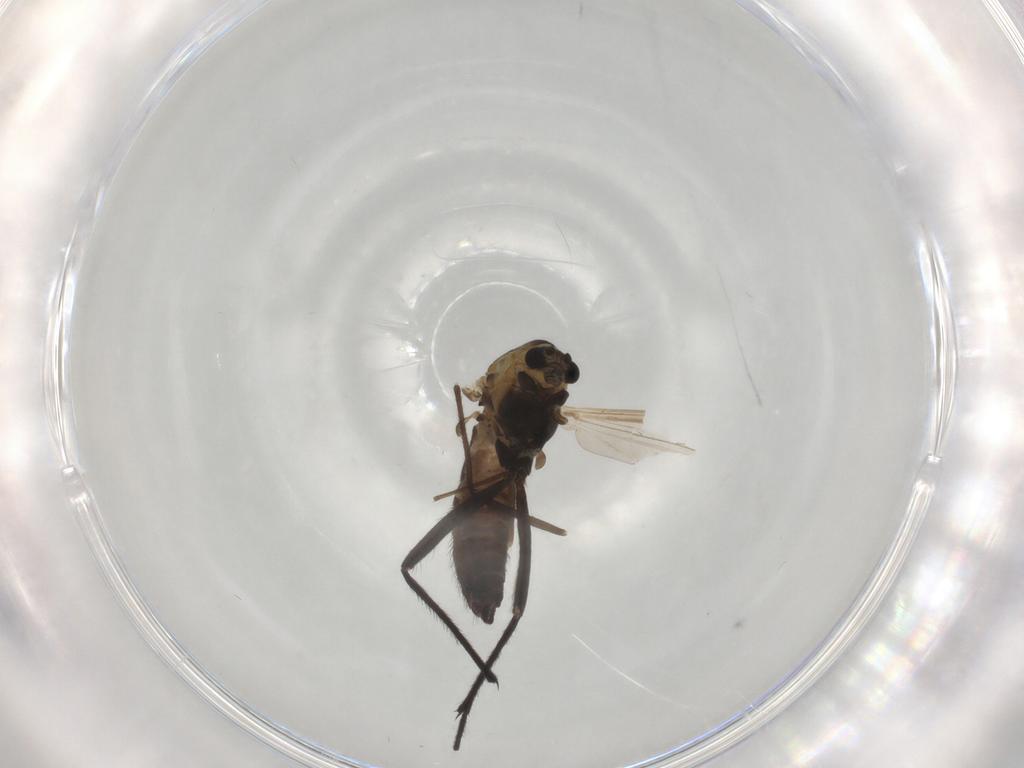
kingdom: Animalia
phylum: Arthropoda
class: Insecta
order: Diptera
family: Chironomidae
